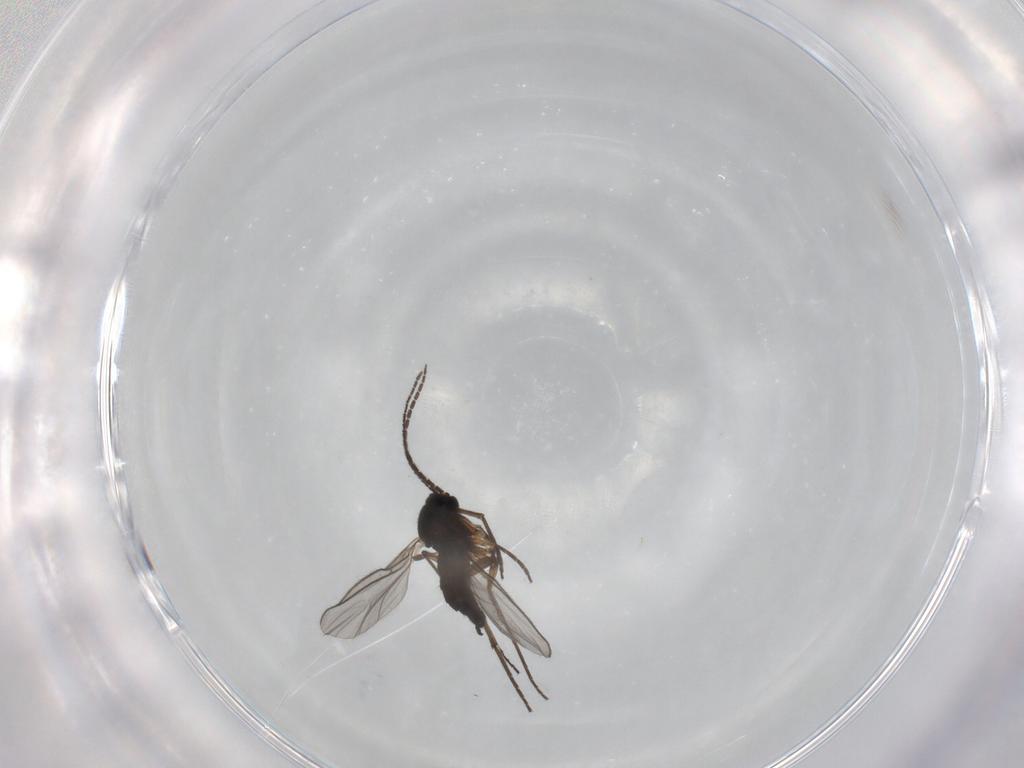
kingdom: Animalia
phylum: Arthropoda
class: Insecta
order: Diptera
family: Sciaridae
